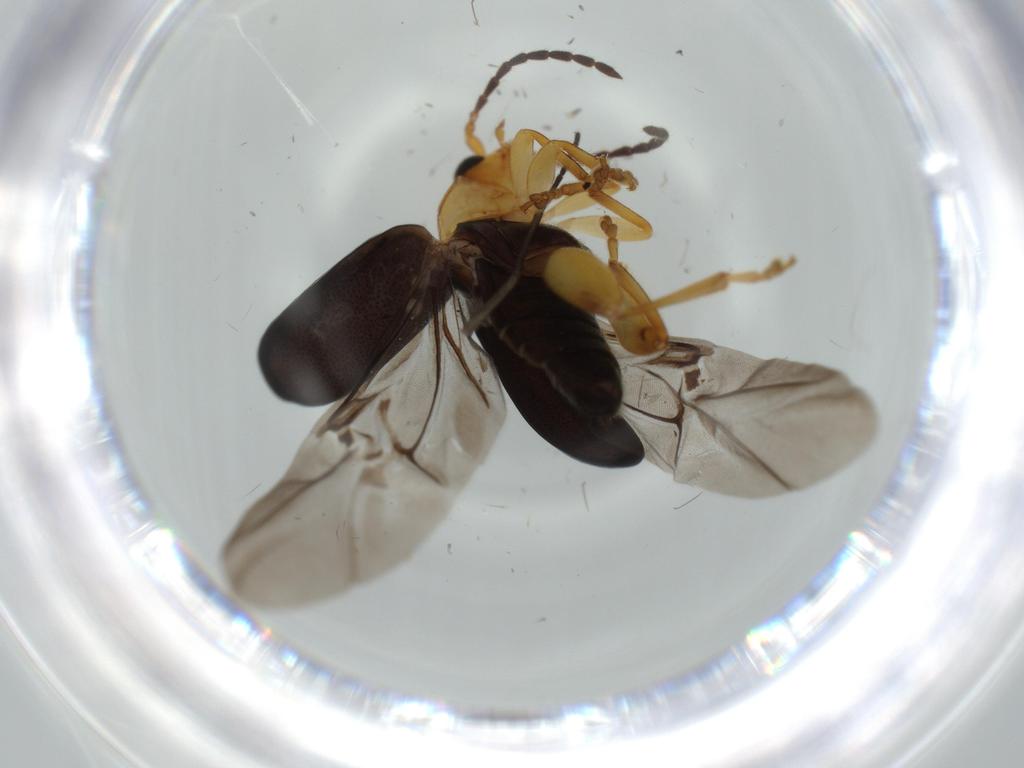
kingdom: Animalia
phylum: Arthropoda
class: Insecta
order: Coleoptera
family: Chrysomelidae
